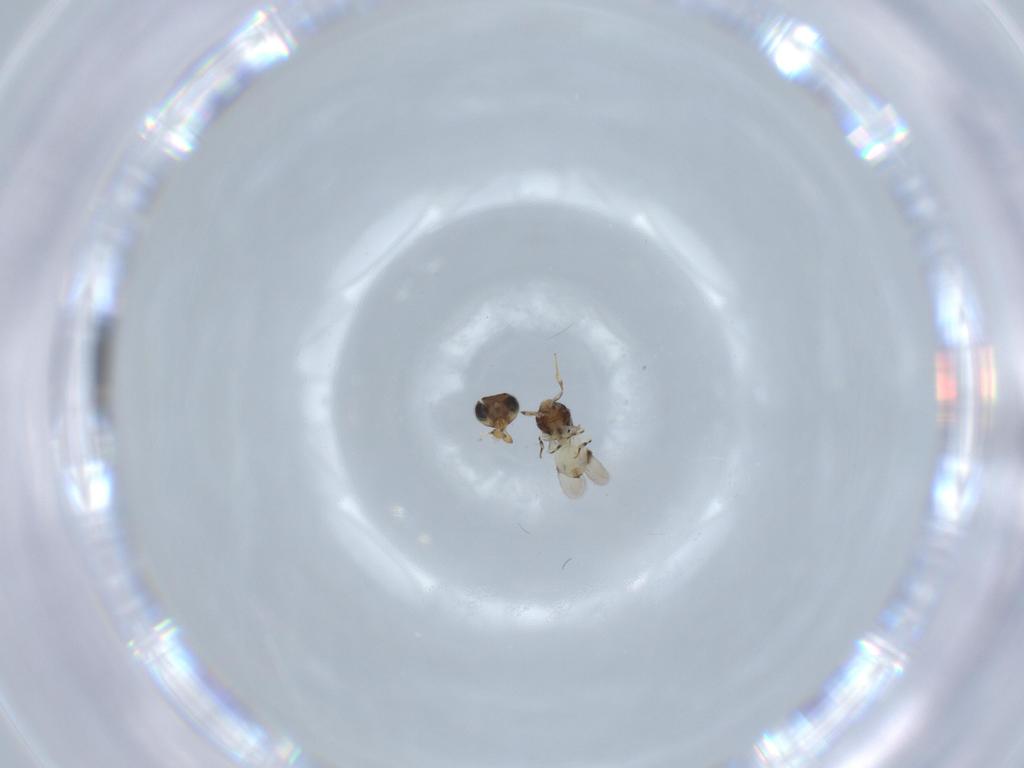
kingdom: Animalia
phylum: Arthropoda
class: Insecta
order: Hymenoptera
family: Scelionidae
